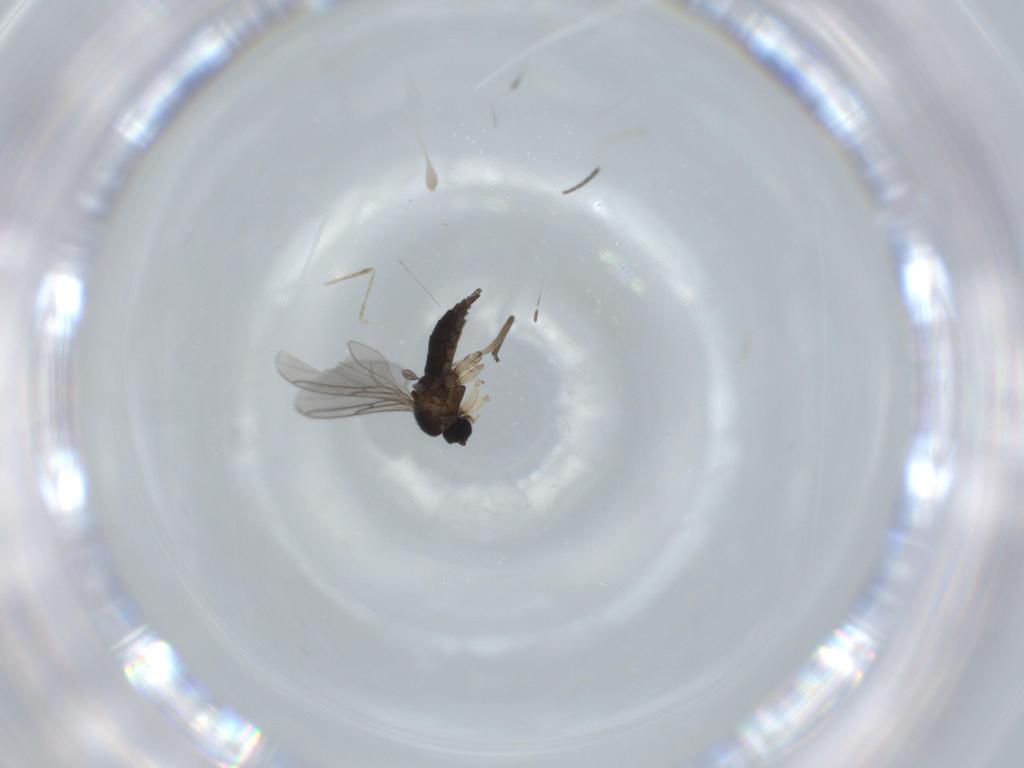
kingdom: Animalia
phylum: Arthropoda
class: Insecta
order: Diptera
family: Sciaridae
